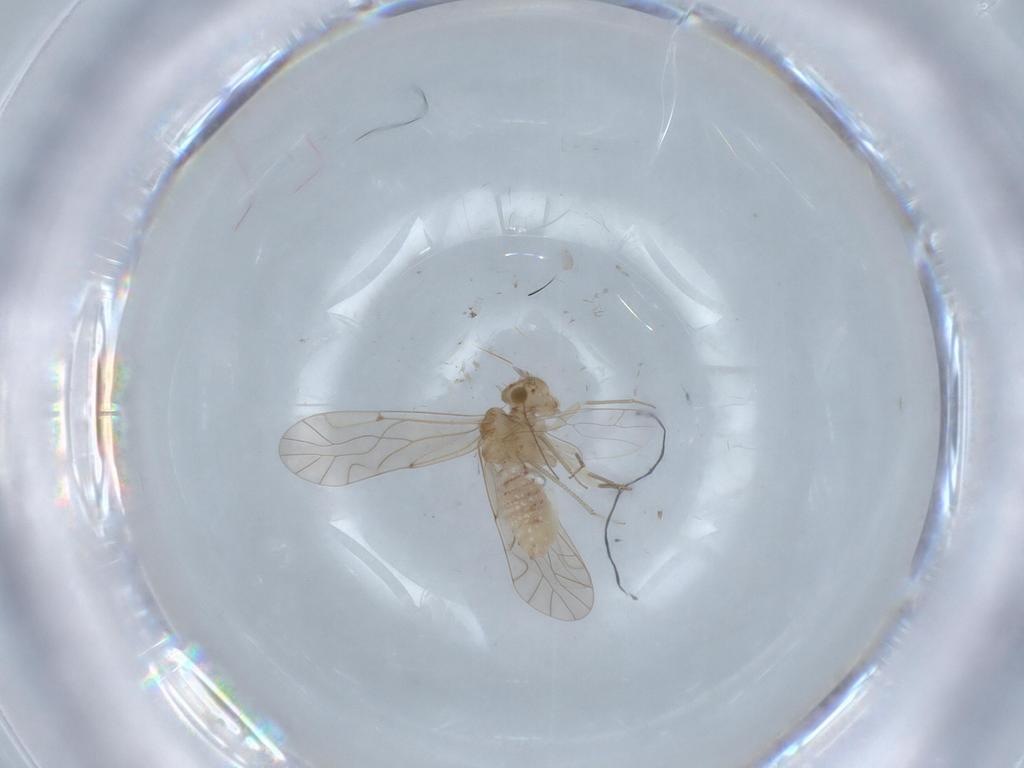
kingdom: Animalia
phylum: Arthropoda
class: Insecta
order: Psocodea
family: Lachesillidae
